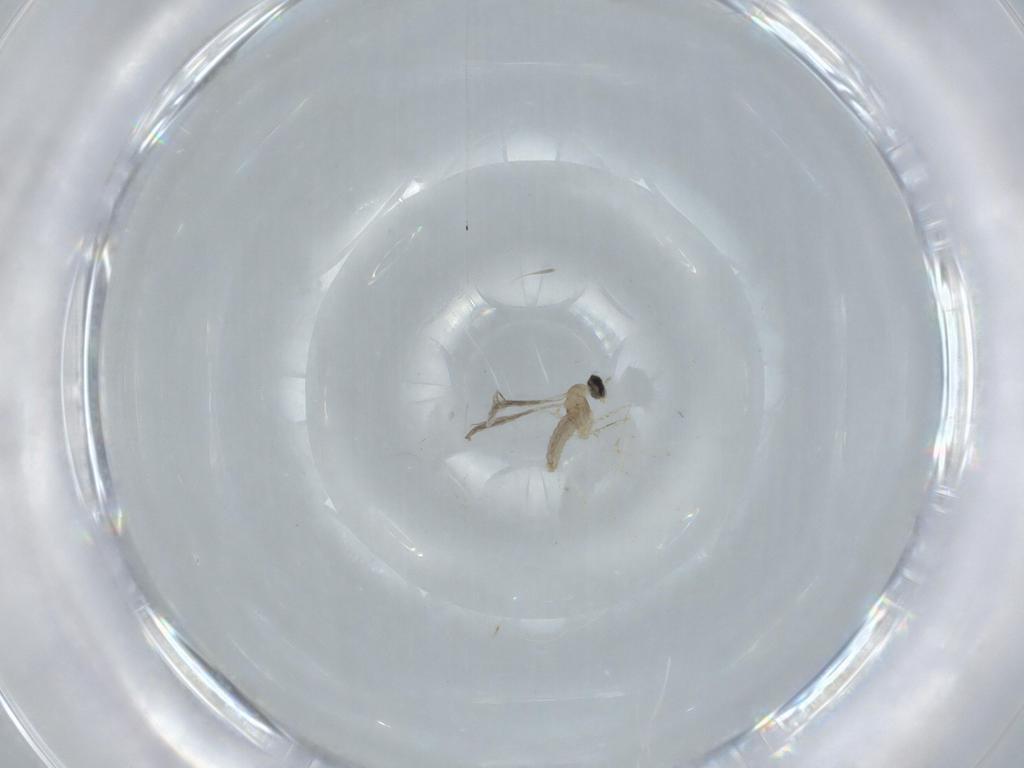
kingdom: Animalia
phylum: Arthropoda
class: Insecta
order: Diptera
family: Cecidomyiidae
